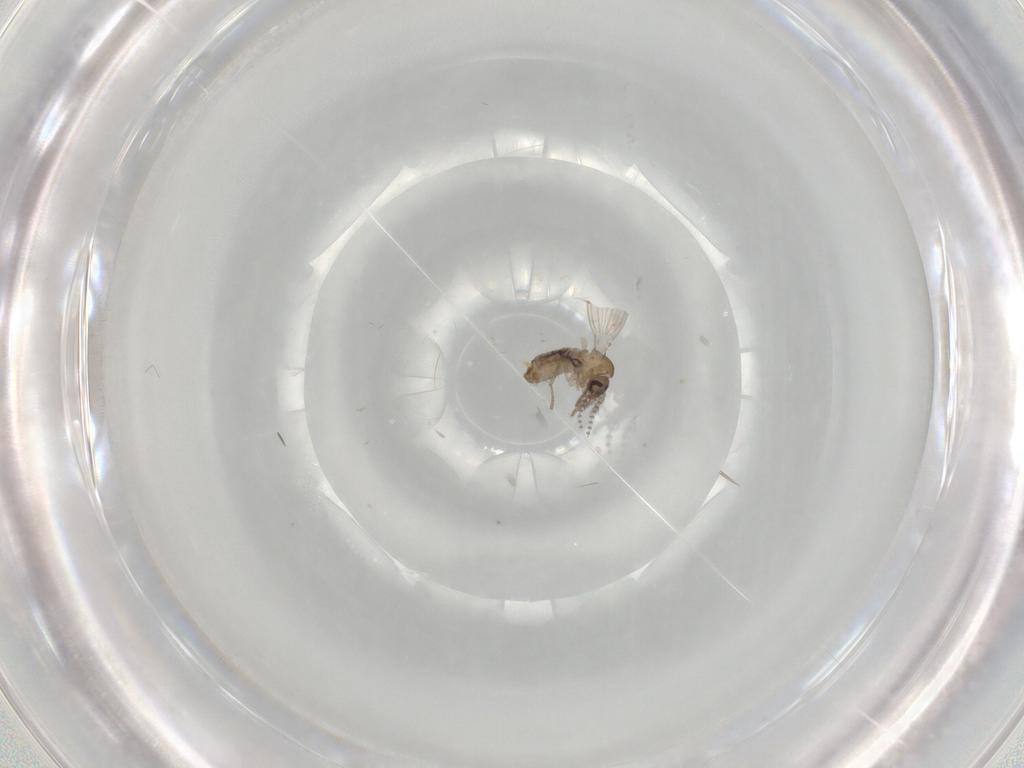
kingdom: Animalia
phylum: Arthropoda
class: Insecta
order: Diptera
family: Psychodidae
